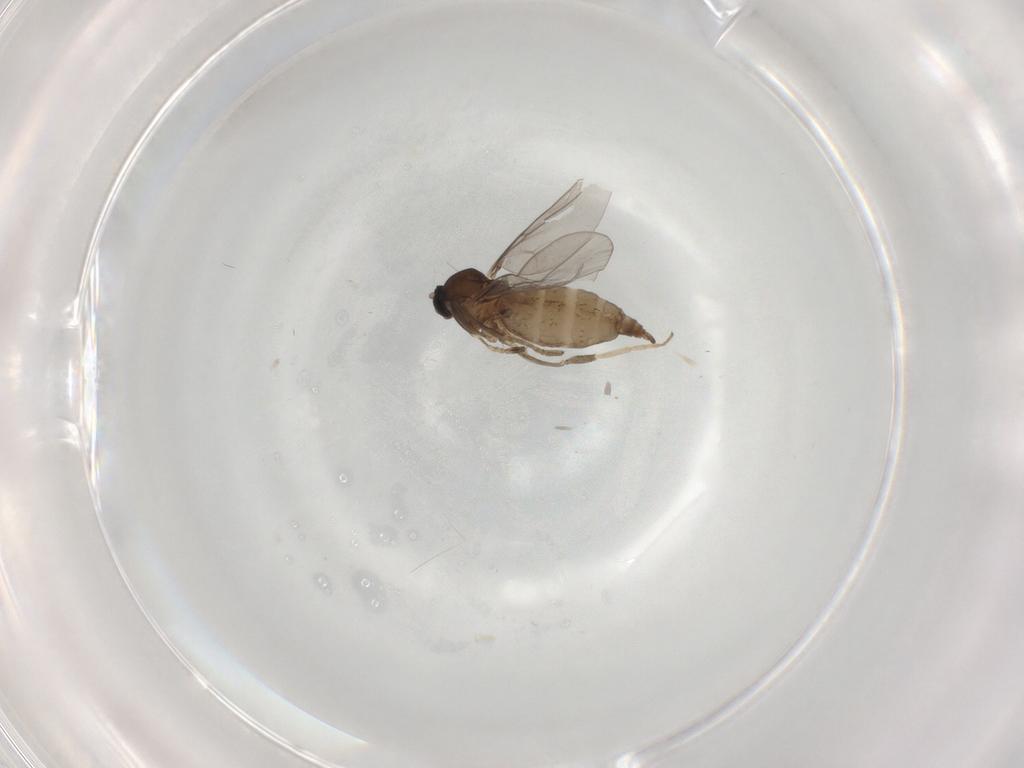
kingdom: Animalia
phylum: Arthropoda
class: Insecta
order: Diptera
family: Cecidomyiidae
